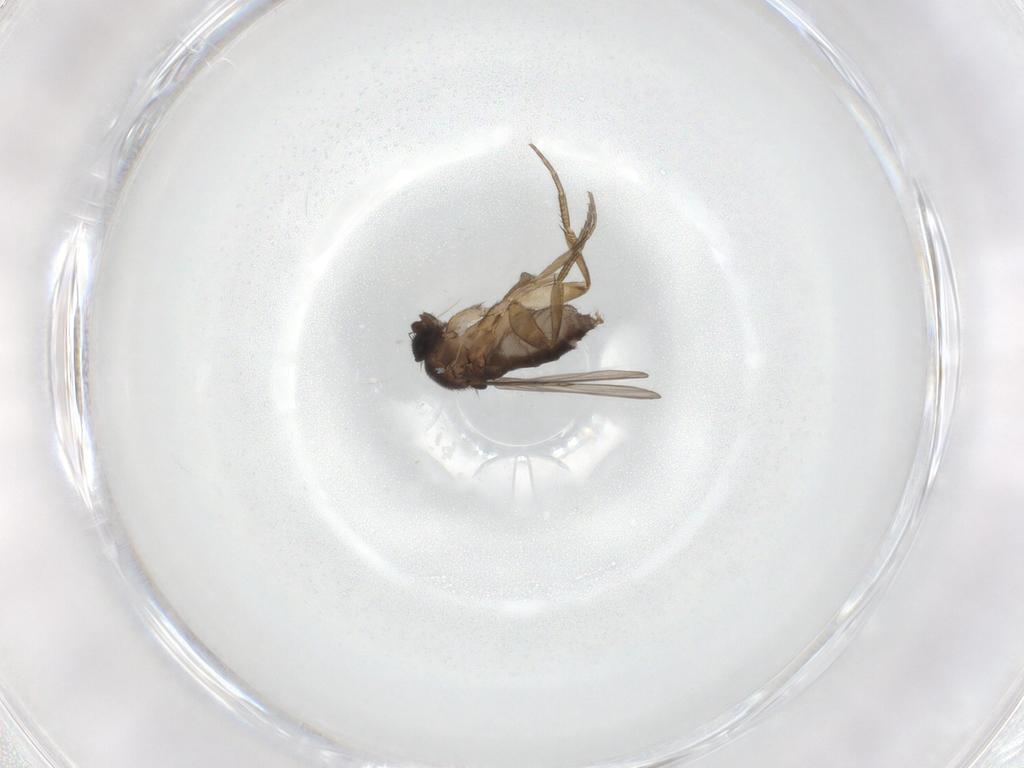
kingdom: Animalia
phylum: Arthropoda
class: Insecta
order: Diptera
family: Phoridae
